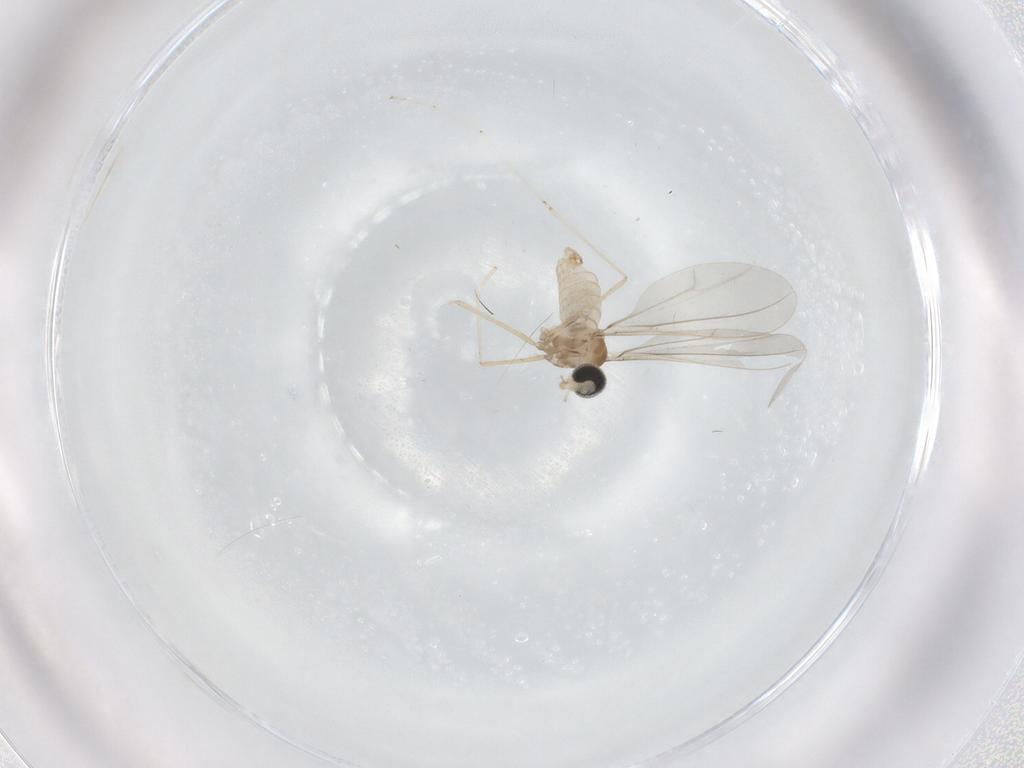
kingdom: Animalia
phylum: Arthropoda
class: Insecta
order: Diptera
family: Cecidomyiidae
